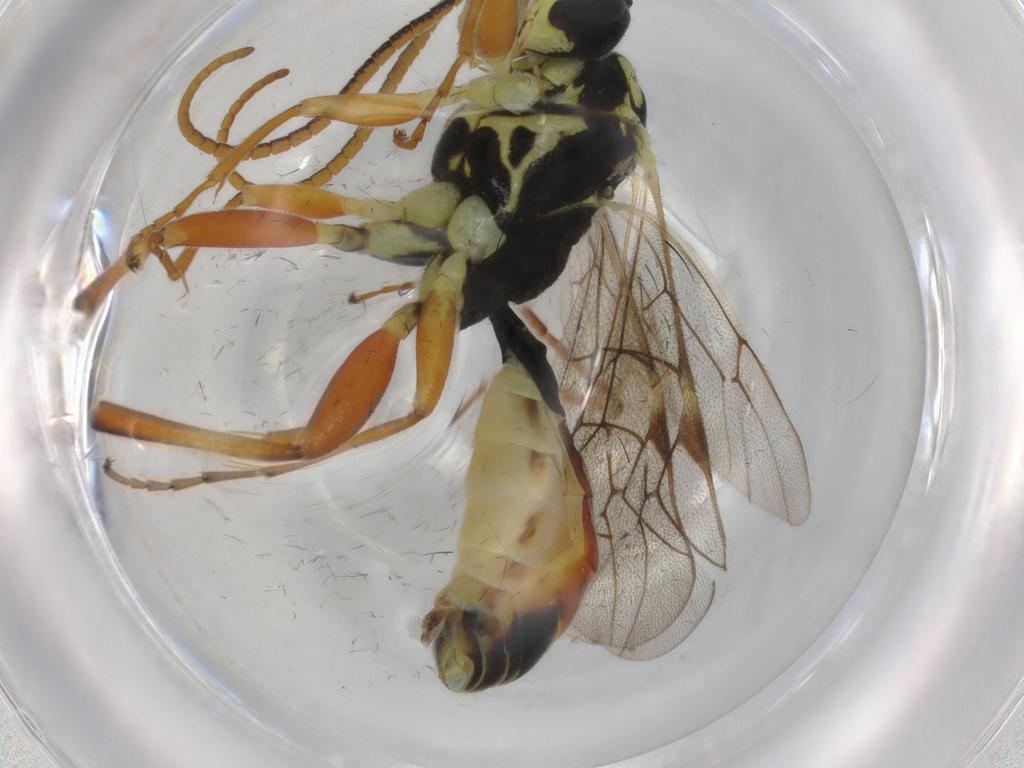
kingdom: Animalia
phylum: Arthropoda
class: Insecta
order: Hymenoptera
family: Ichneumonidae
